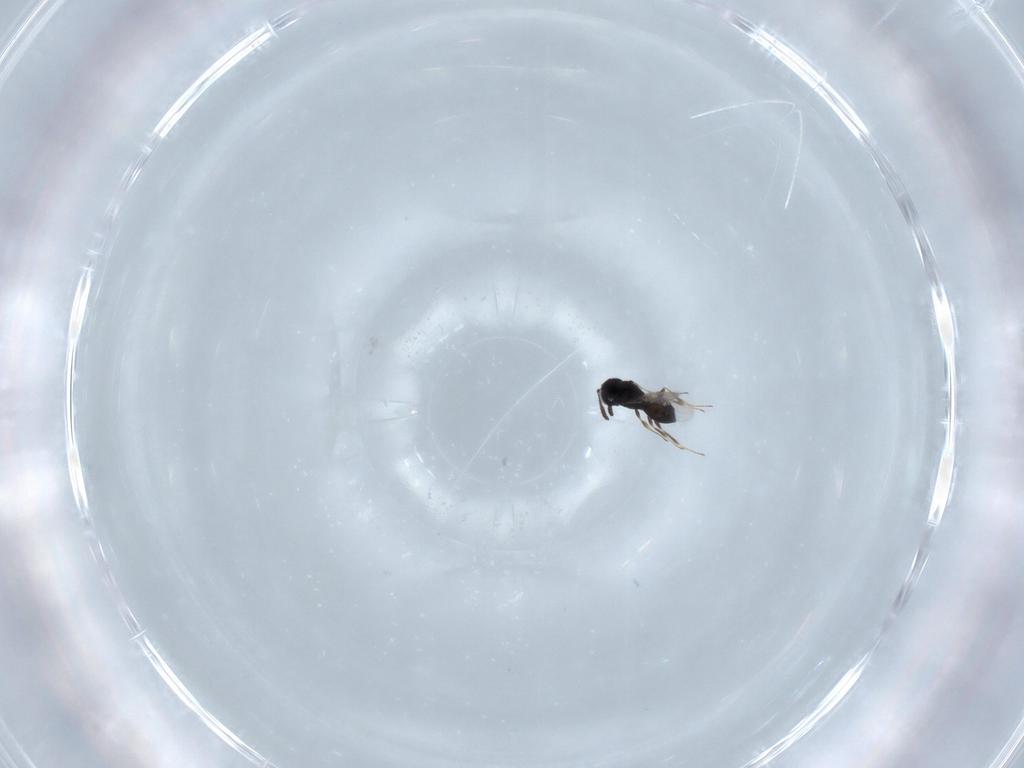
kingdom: Animalia
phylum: Arthropoda
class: Insecta
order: Hymenoptera
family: Scelionidae
